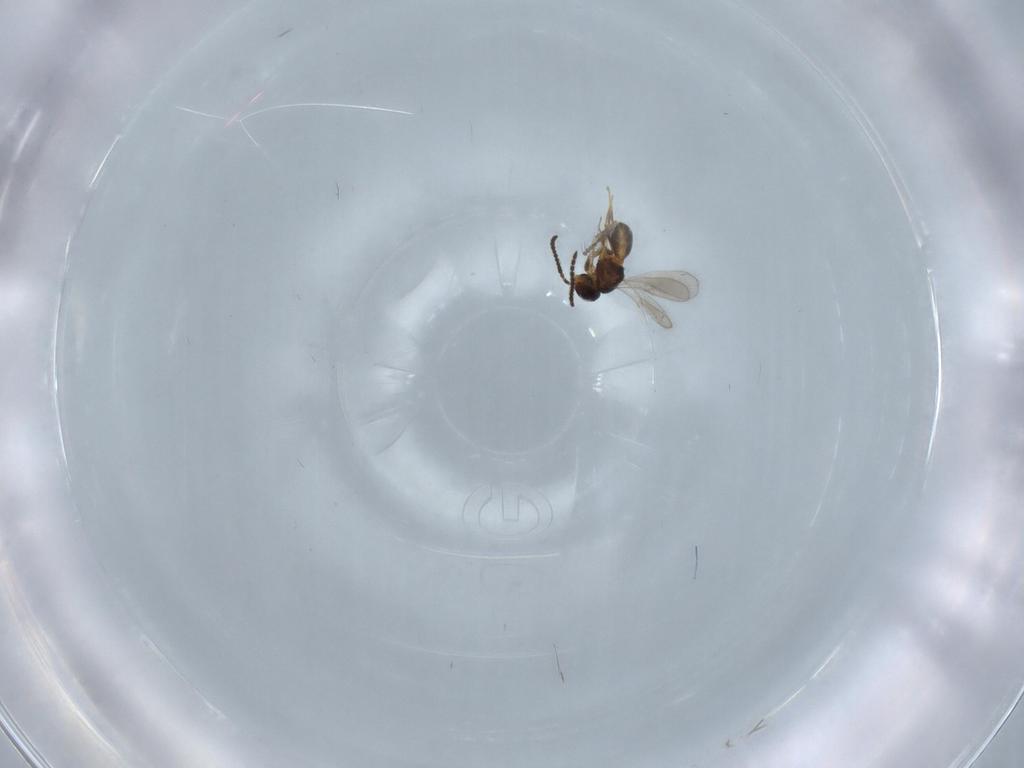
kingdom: Animalia
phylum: Arthropoda
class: Insecta
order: Hymenoptera
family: Scelionidae
